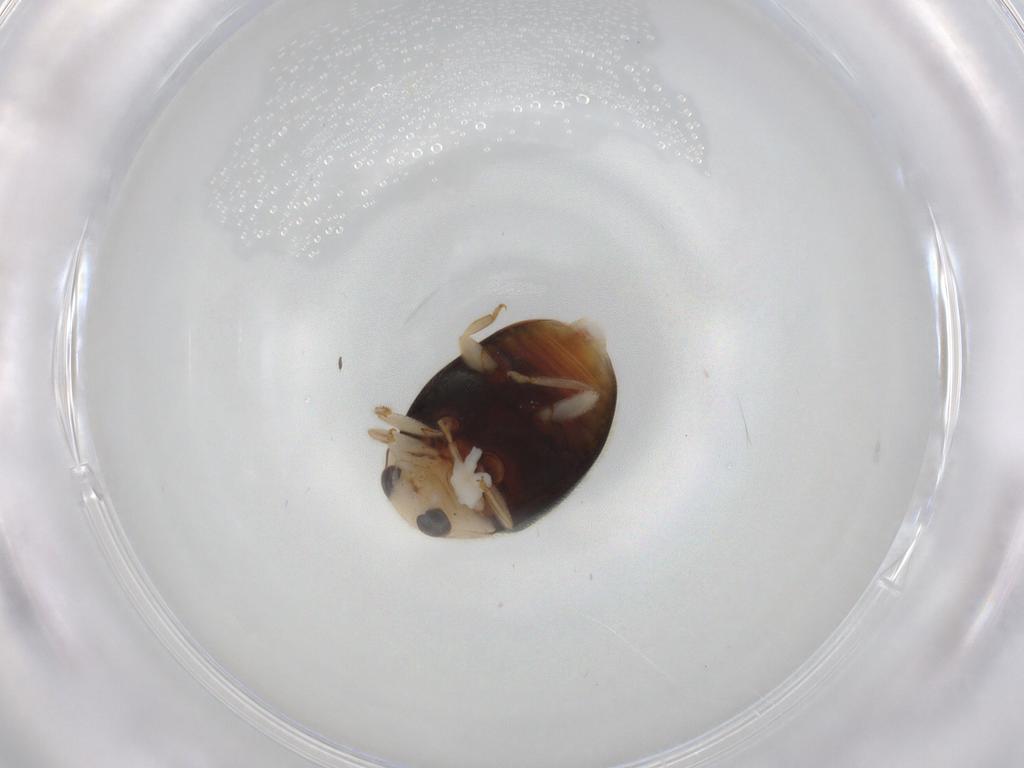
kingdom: Animalia
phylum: Arthropoda
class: Insecta
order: Coleoptera
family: Coccinellidae
